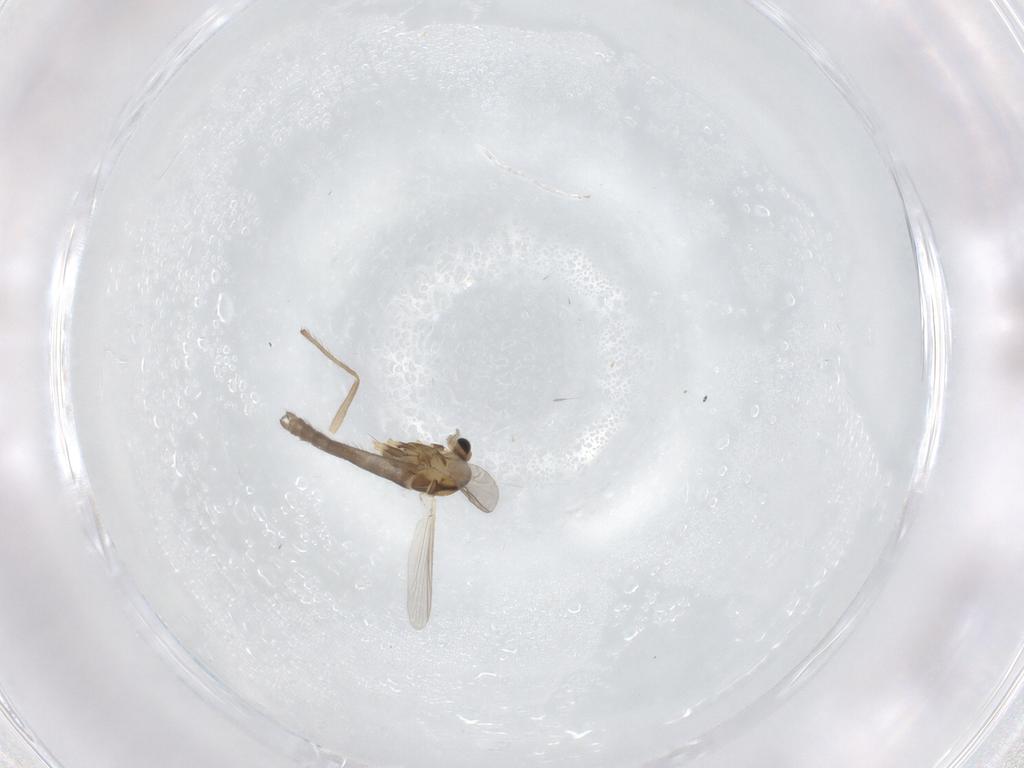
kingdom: Animalia
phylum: Arthropoda
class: Insecta
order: Diptera
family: Chironomidae
